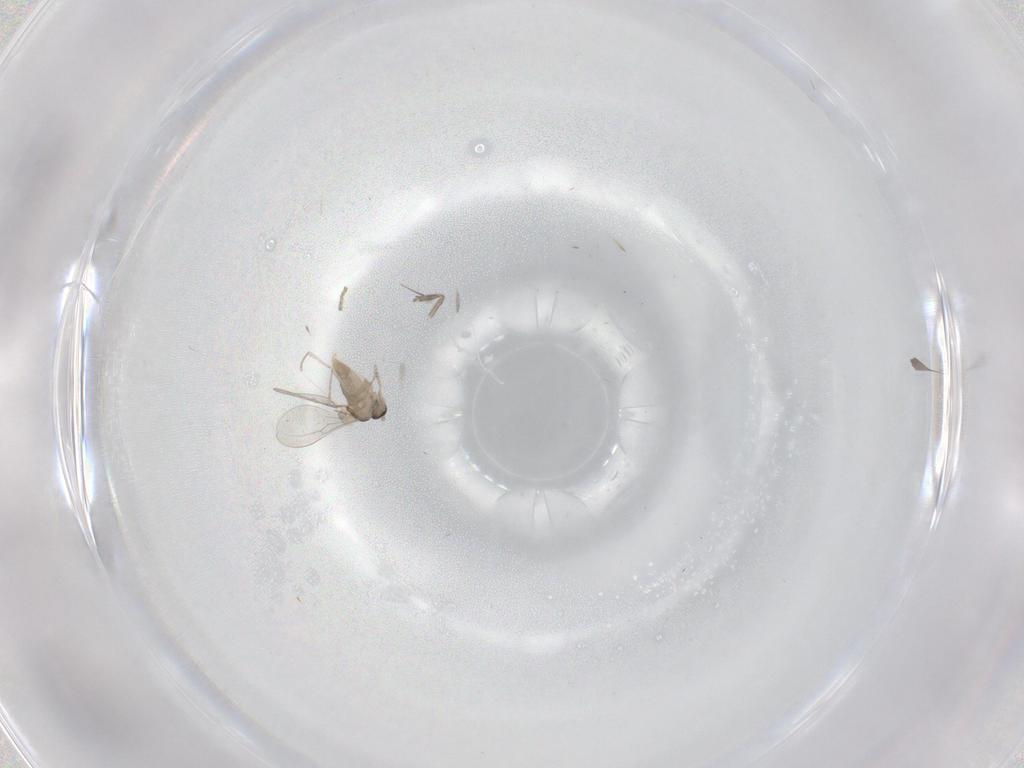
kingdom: Animalia
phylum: Arthropoda
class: Insecta
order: Diptera
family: Cecidomyiidae
